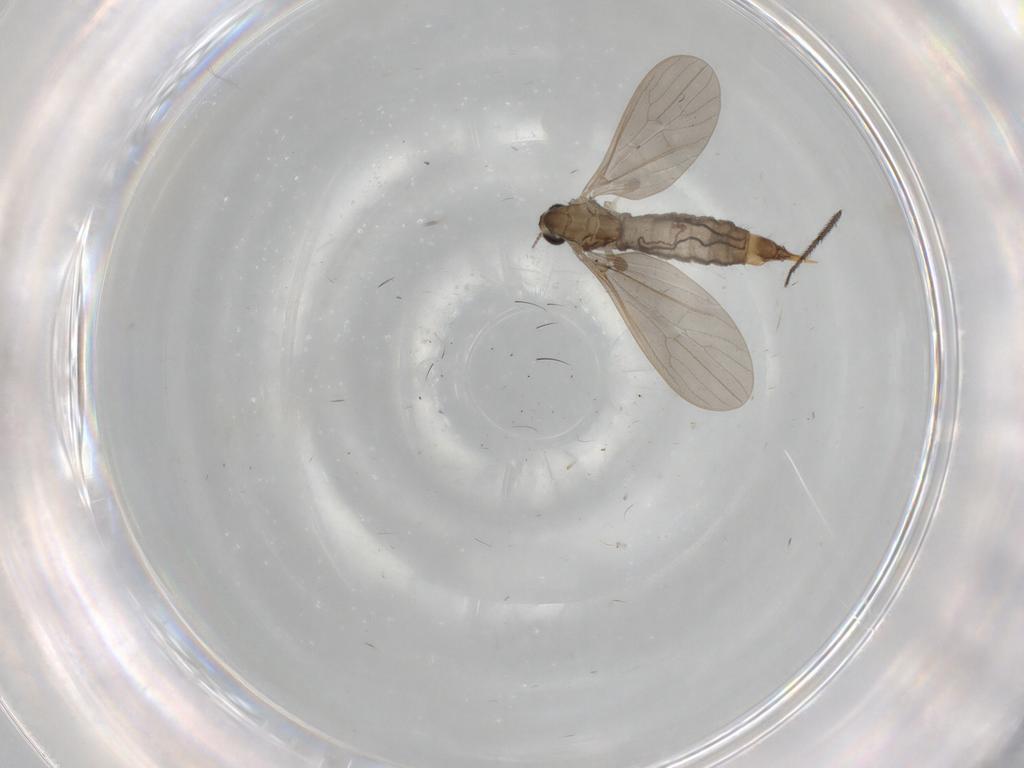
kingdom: Animalia
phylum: Arthropoda
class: Insecta
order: Diptera
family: Limoniidae
